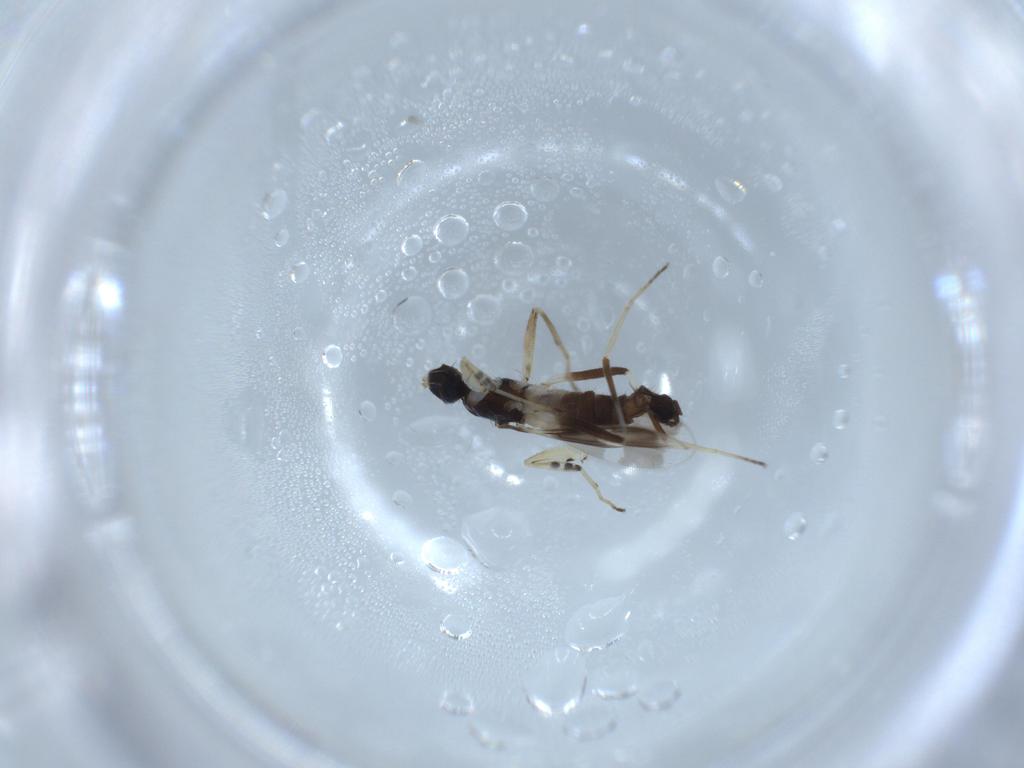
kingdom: Animalia
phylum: Arthropoda
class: Insecta
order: Diptera
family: Hybotidae
